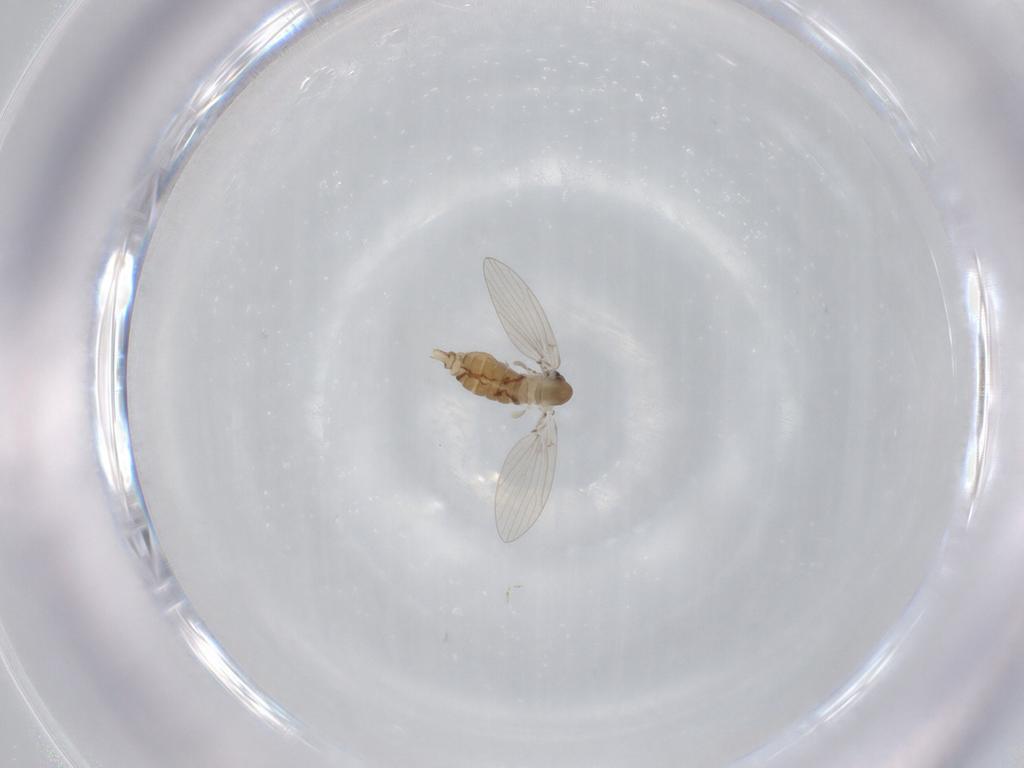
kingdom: Animalia
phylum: Arthropoda
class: Insecta
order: Diptera
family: Psychodidae
